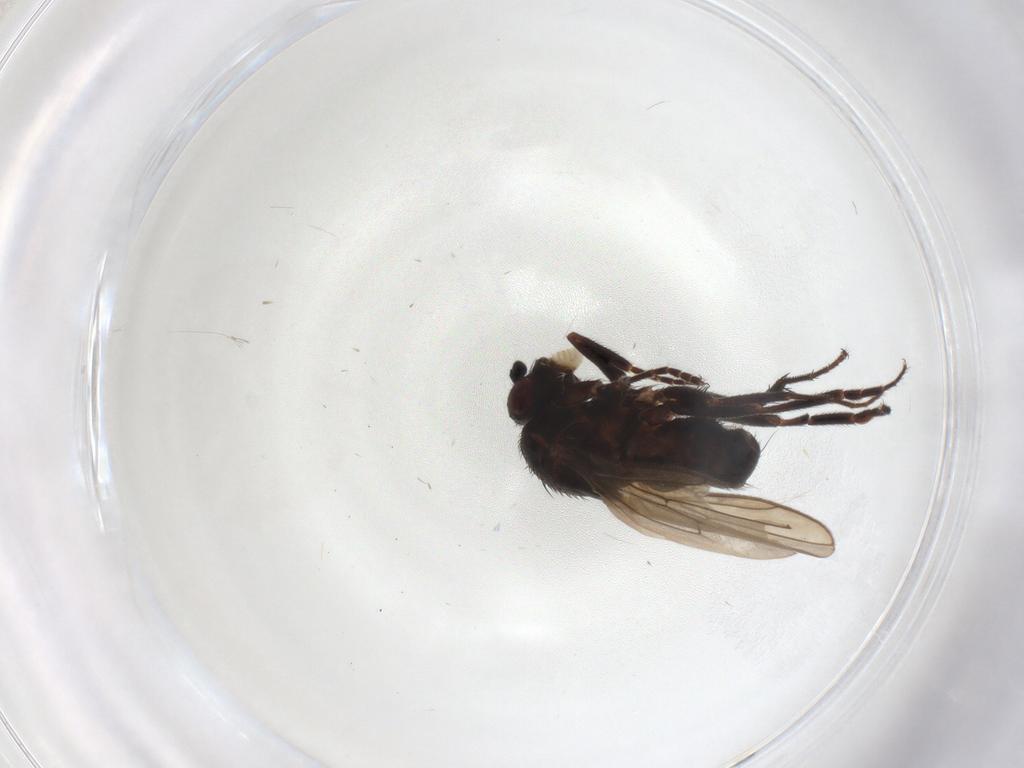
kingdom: Animalia
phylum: Arthropoda
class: Insecta
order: Diptera
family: Sphaeroceridae
